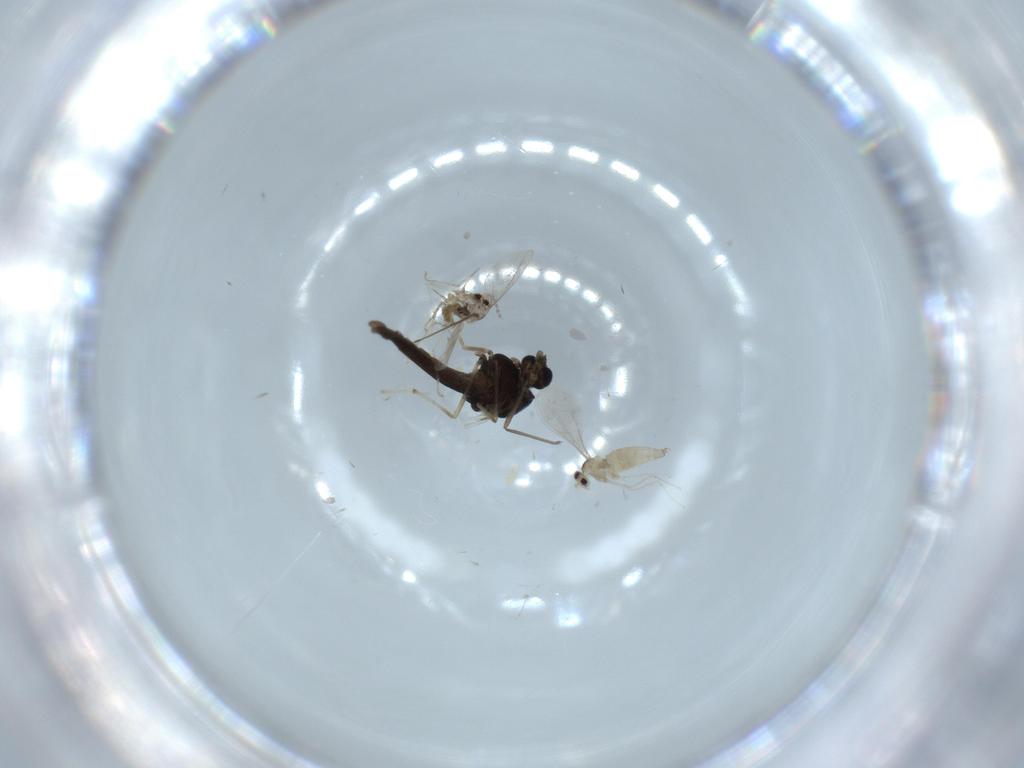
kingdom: Animalia
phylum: Arthropoda
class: Insecta
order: Diptera
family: Chironomidae
